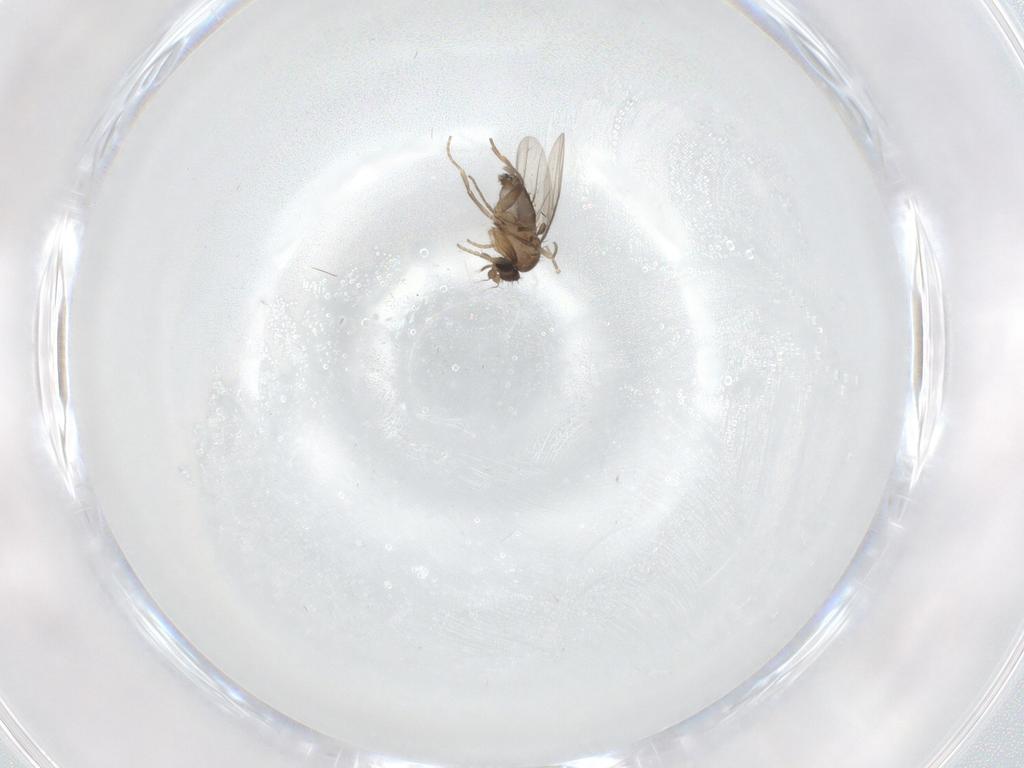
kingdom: Animalia
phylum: Arthropoda
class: Insecta
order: Diptera
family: Phoridae
